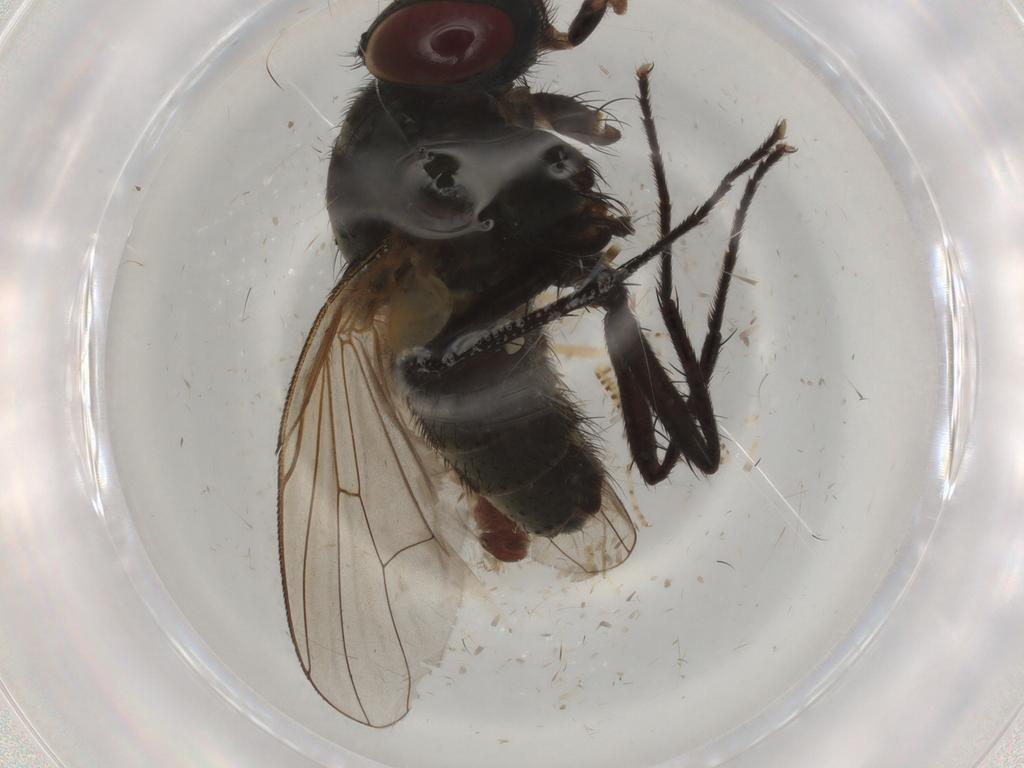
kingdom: Animalia
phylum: Arthropoda
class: Insecta
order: Diptera
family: Muscidae
